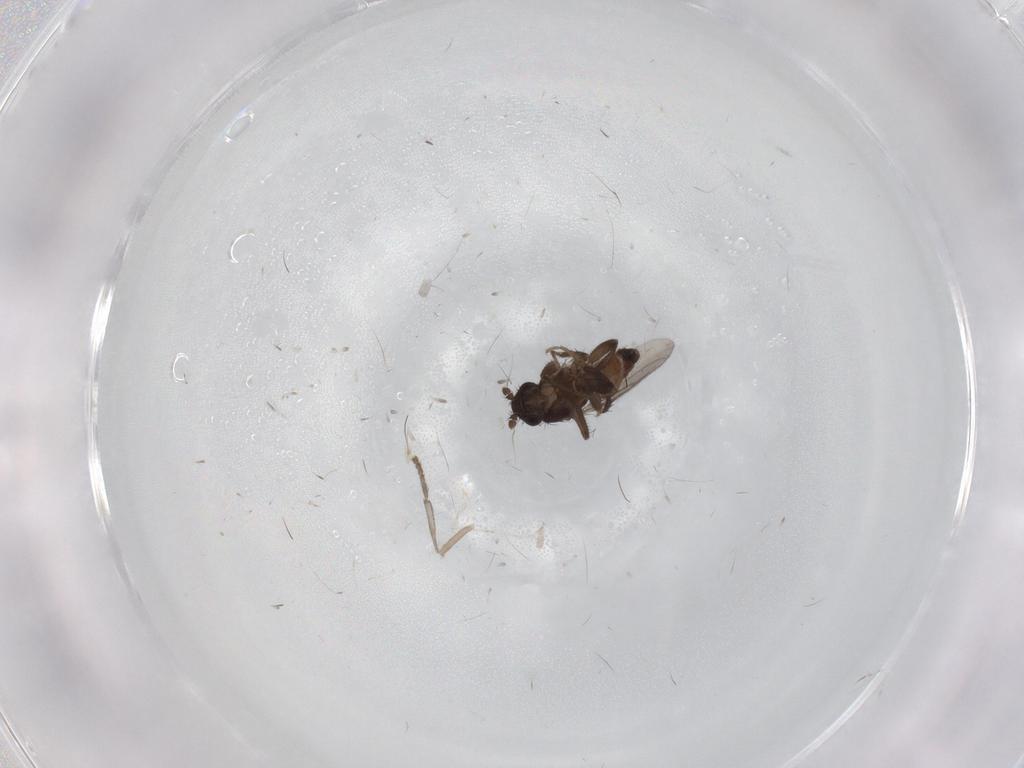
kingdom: Animalia
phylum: Arthropoda
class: Insecta
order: Diptera
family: Cecidomyiidae
